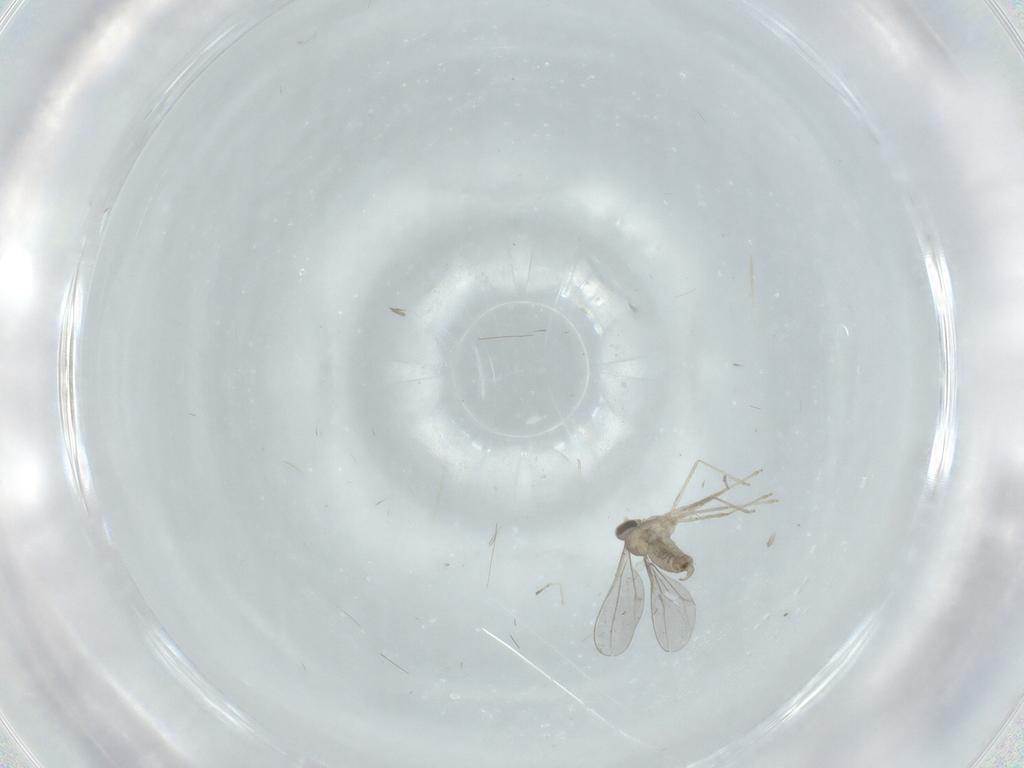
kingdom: Animalia
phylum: Arthropoda
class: Insecta
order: Diptera
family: Cecidomyiidae
